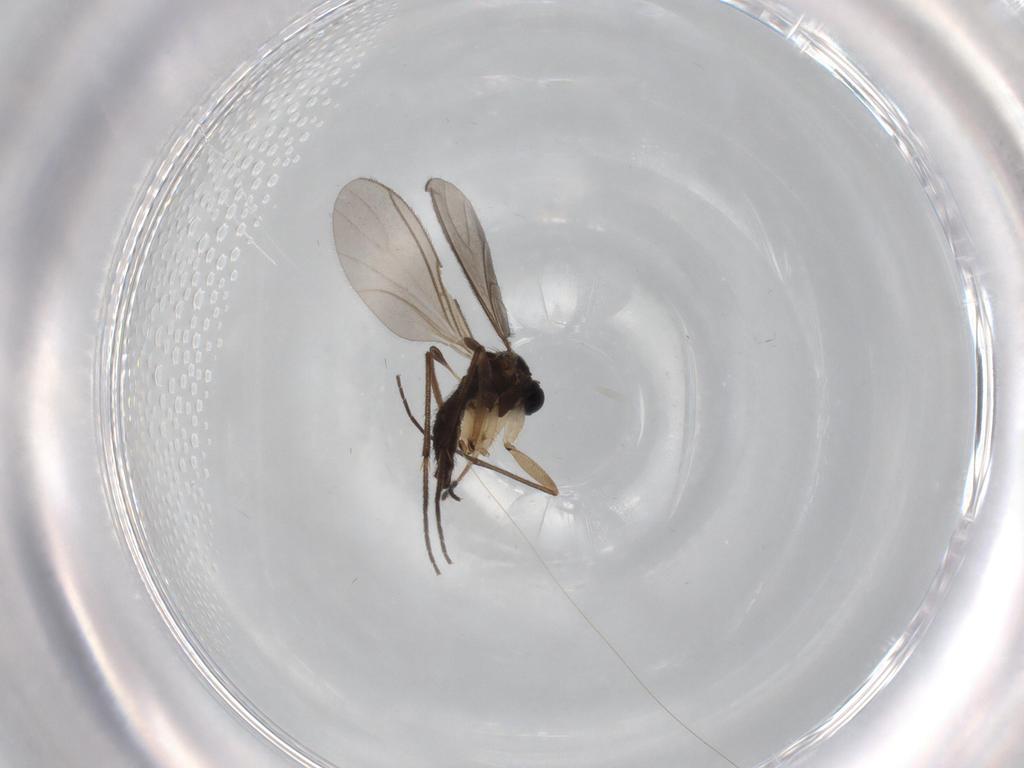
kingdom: Animalia
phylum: Arthropoda
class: Insecta
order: Diptera
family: Sciaridae
